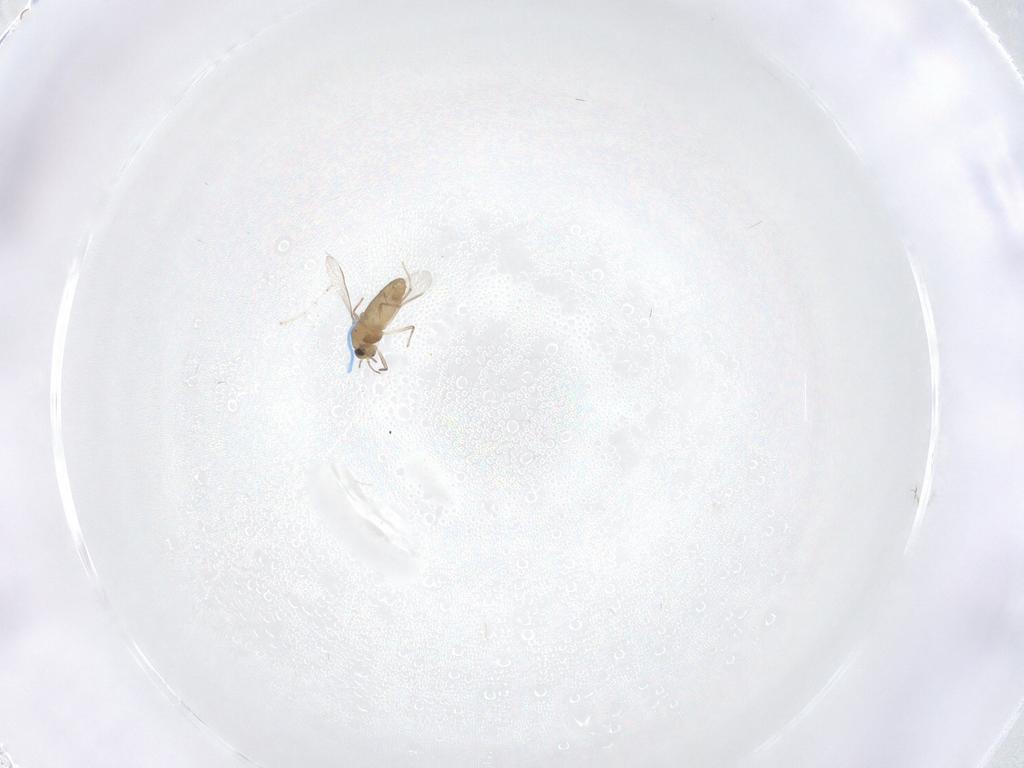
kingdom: Animalia
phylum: Arthropoda
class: Insecta
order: Diptera
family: Chironomidae
